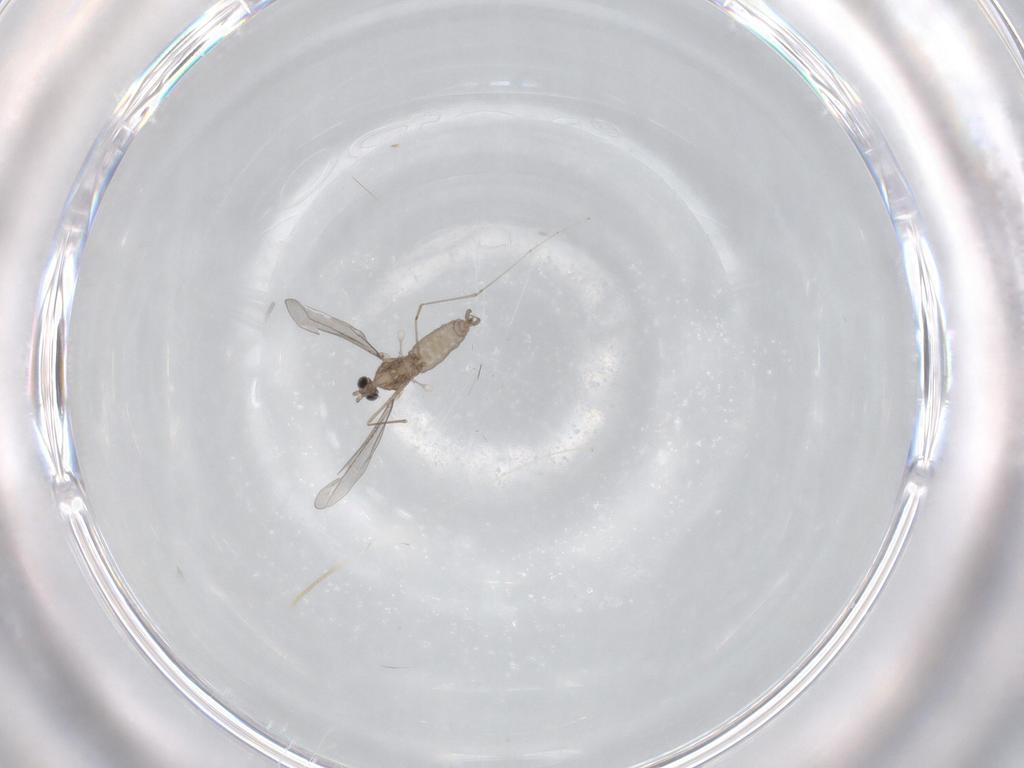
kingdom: Animalia
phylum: Arthropoda
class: Insecta
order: Diptera
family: Cecidomyiidae
